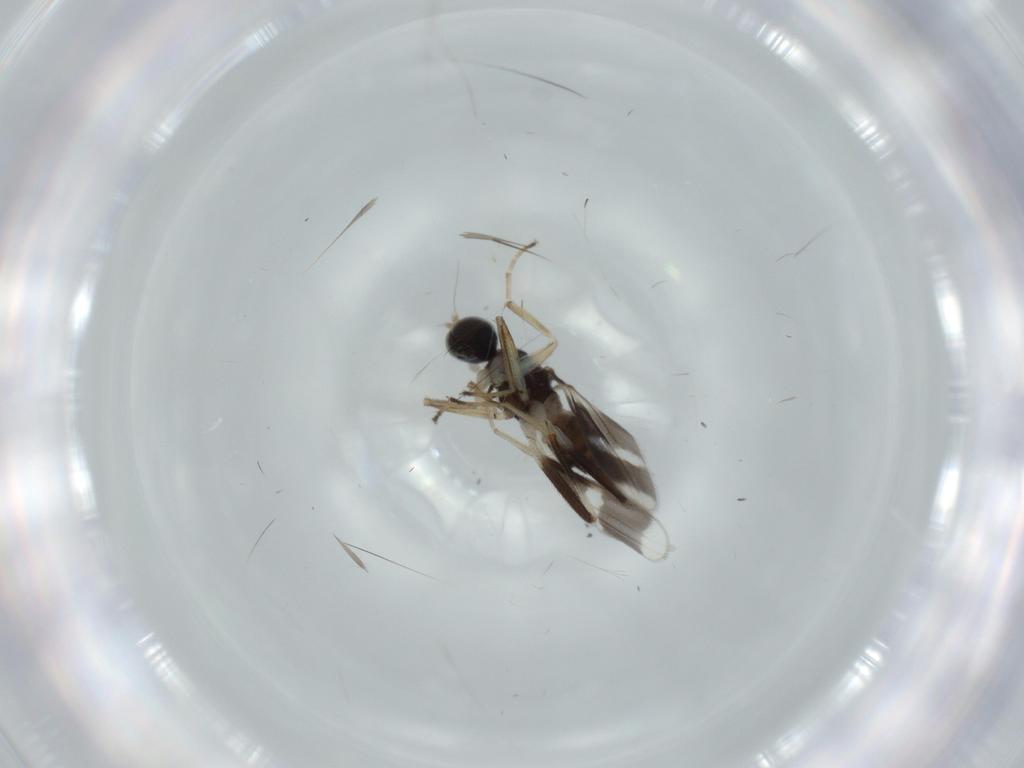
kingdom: Animalia
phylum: Arthropoda
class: Insecta
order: Diptera
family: Hybotidae
